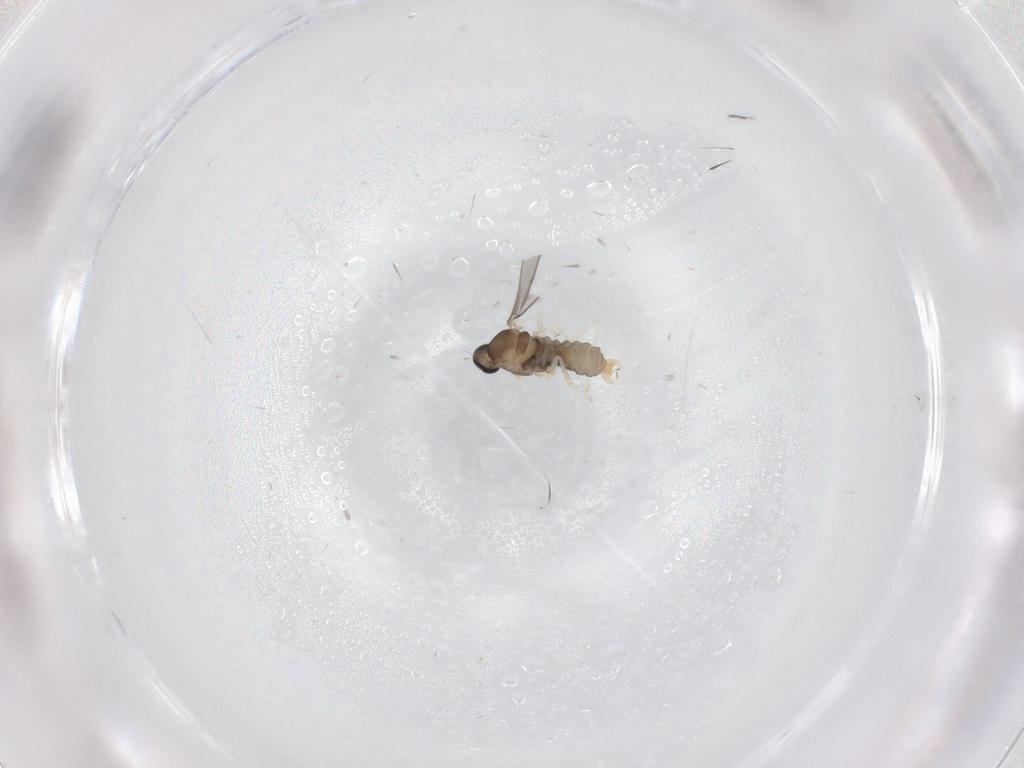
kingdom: Animalia
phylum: Arthropoda
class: Insecta
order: Diptera
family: Cecidomyiidae
